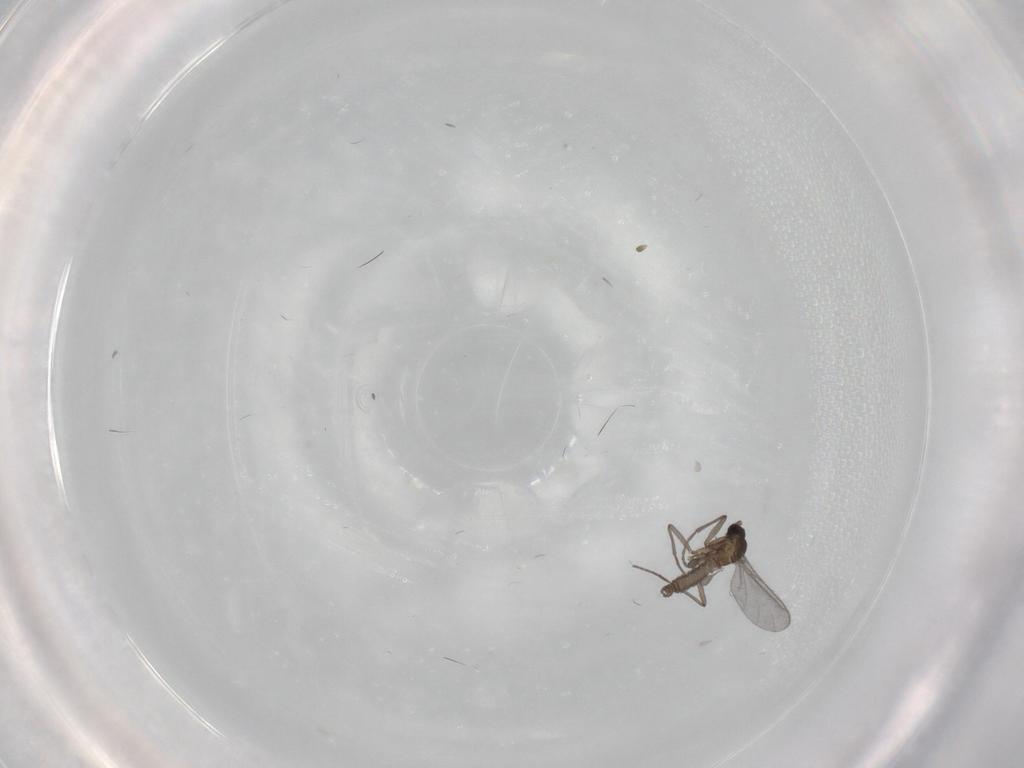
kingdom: Animalia
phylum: Arthropoda
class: Insecta
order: Diptera
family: Sciaridae
